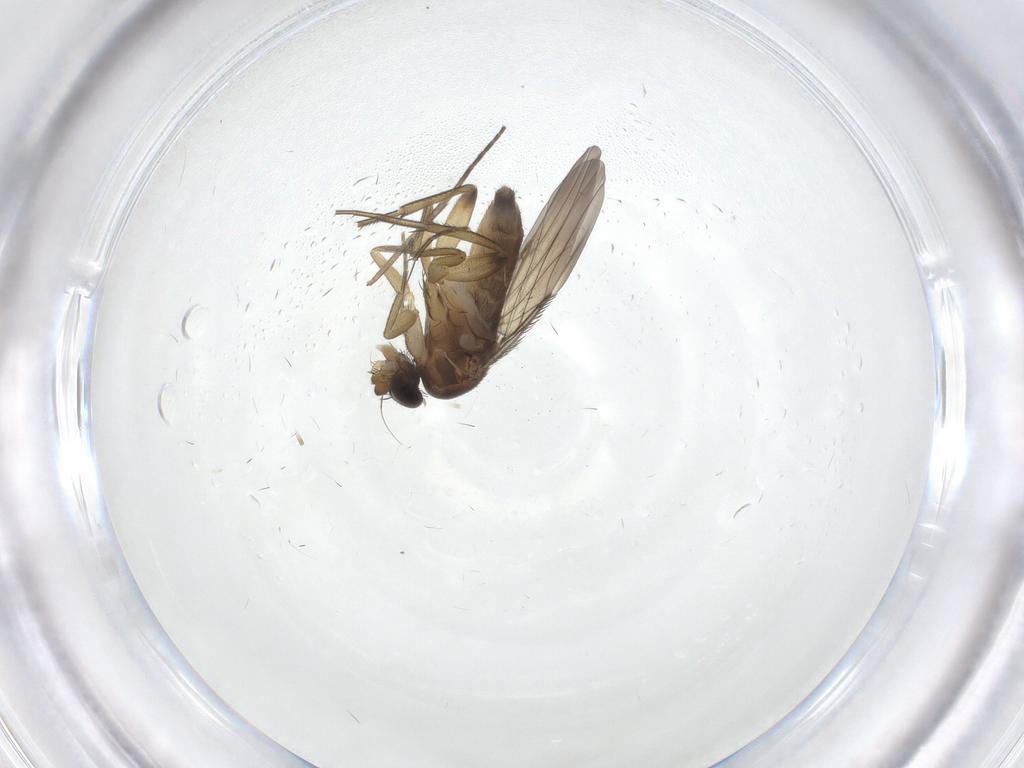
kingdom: Animalia
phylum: Arthropoda
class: Insecta
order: Diptera
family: Phoridae
